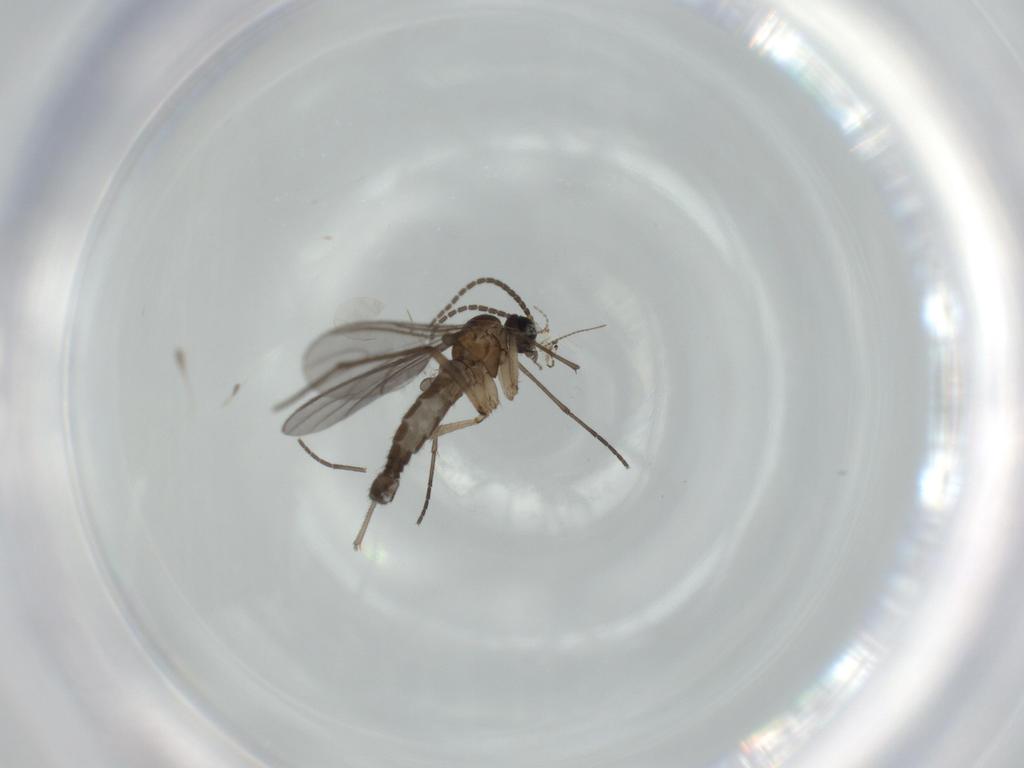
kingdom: Animalia
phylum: Arthropoda
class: Insecta
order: Diptera
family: Sciaridae
